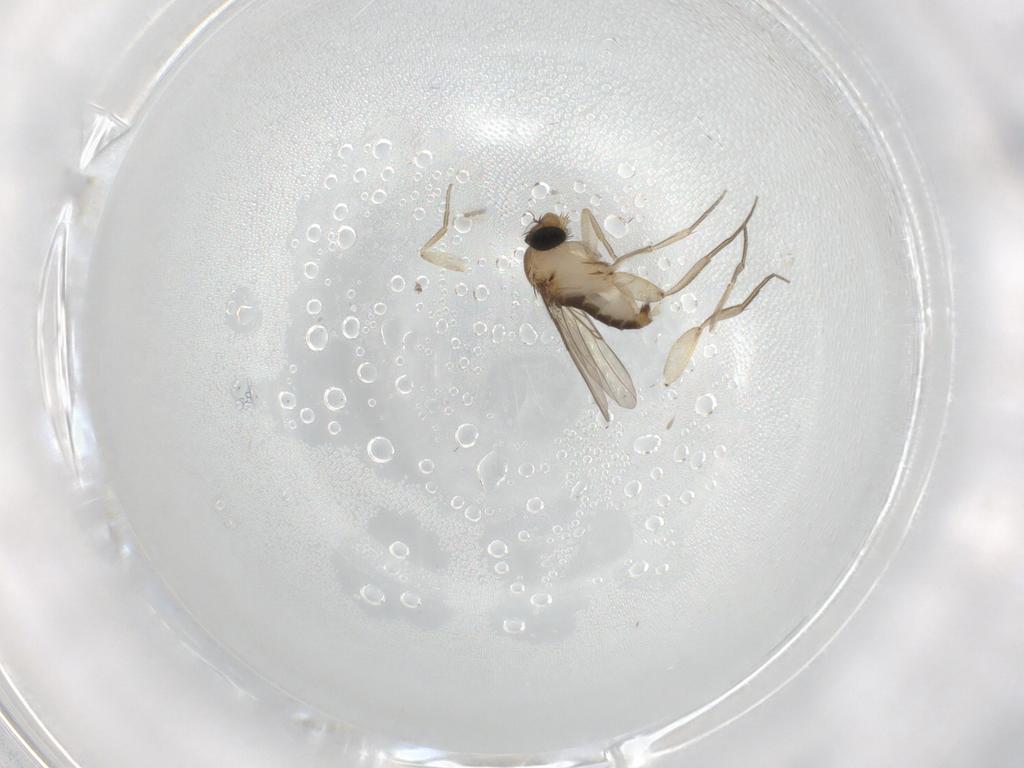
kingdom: Animalia
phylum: Arthropoda
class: Insecta
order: Diptera
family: Phoridae
